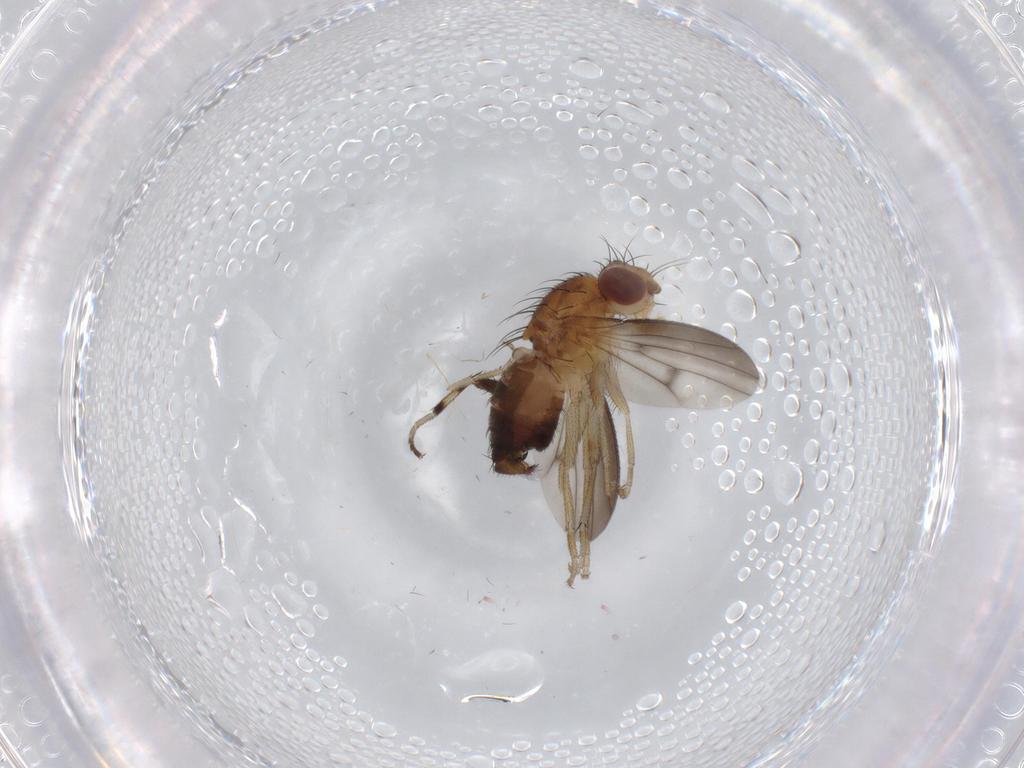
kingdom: Animalia
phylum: Arthropoda
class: Insecta
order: Diptera
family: Heleomyzidae
